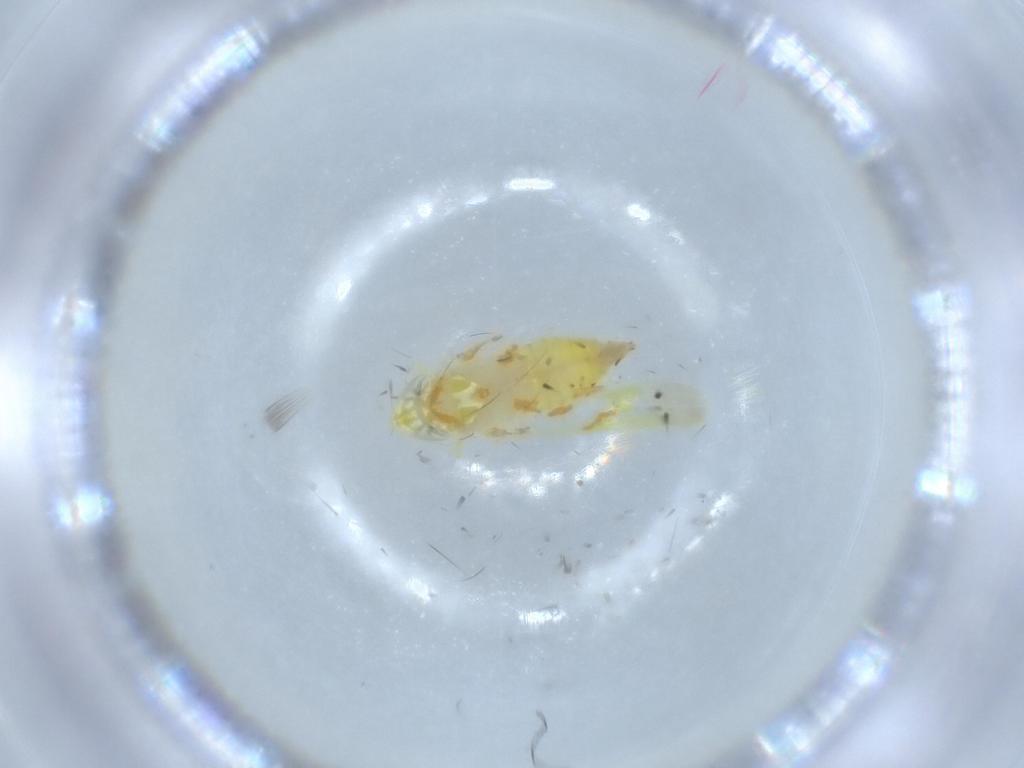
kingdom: Animalia
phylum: Arthropoda
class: Insecta
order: Hemiptera
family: Cicadellidae
